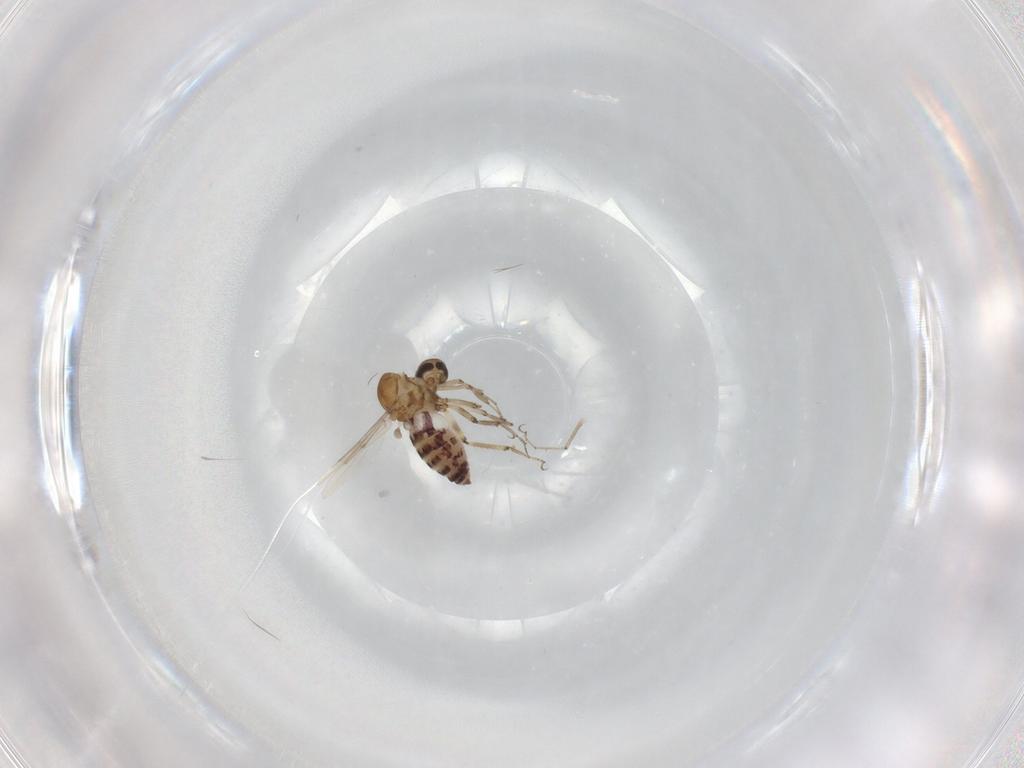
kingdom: Animalia
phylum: Arthropoda
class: Insecta
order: Diptera
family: Ceratopogonidae
